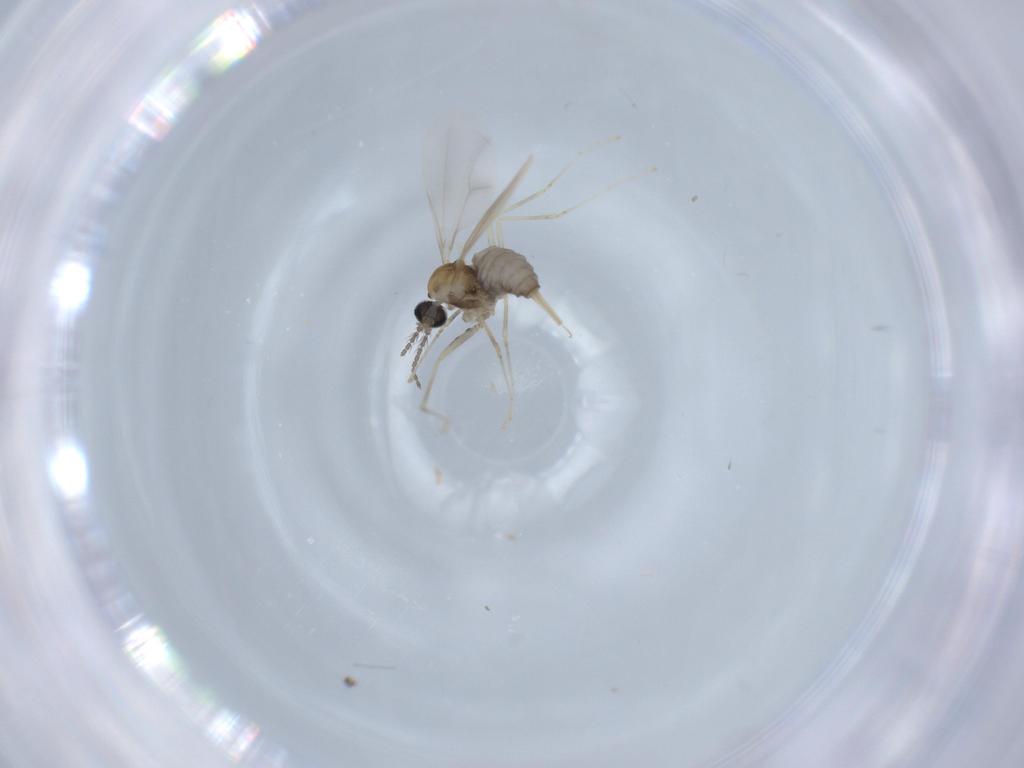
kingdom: Animalia
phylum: Arthropoda
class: Insecta
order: Diptera
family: Cecidomyiidae
